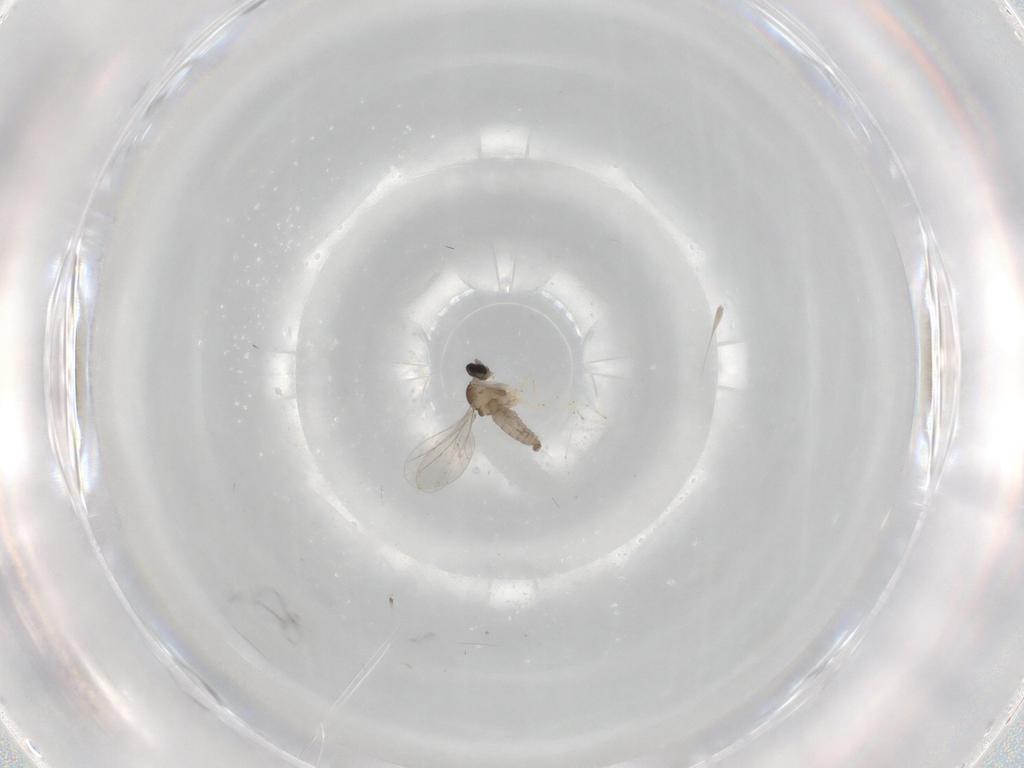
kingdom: Animalia
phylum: Arthropoda
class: Insecta
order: Diptera
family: Cecidomyiidae
